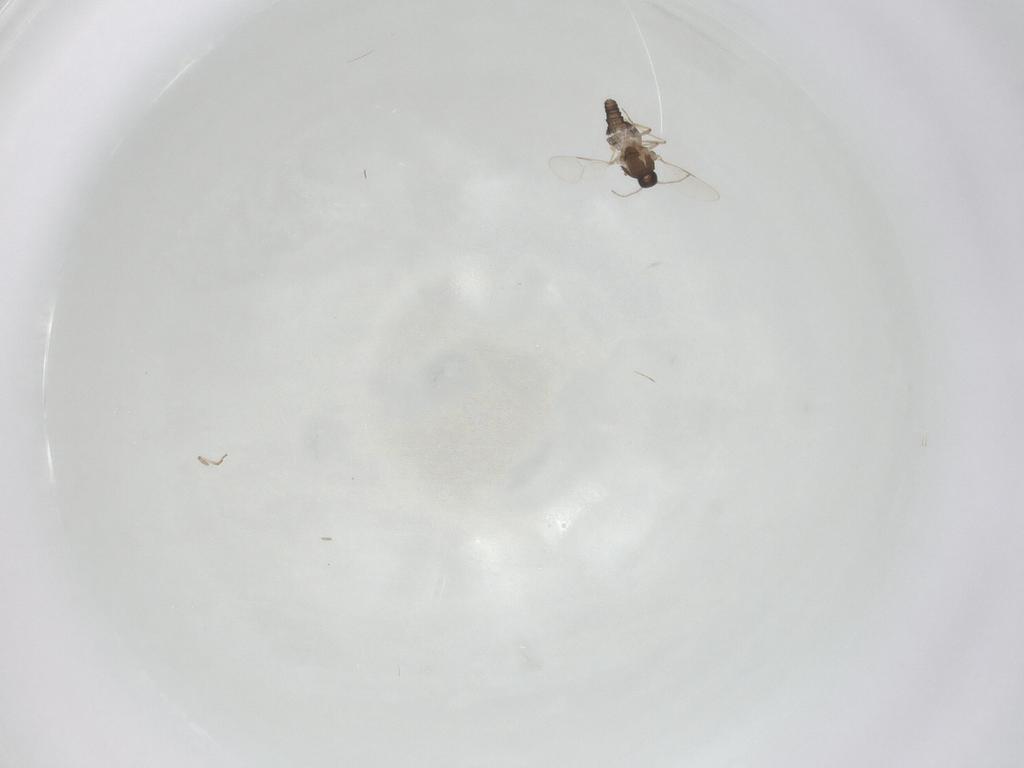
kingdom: Animalia
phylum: Arthropoda
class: Insecta
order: Diptera
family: Ceratopogonidae
